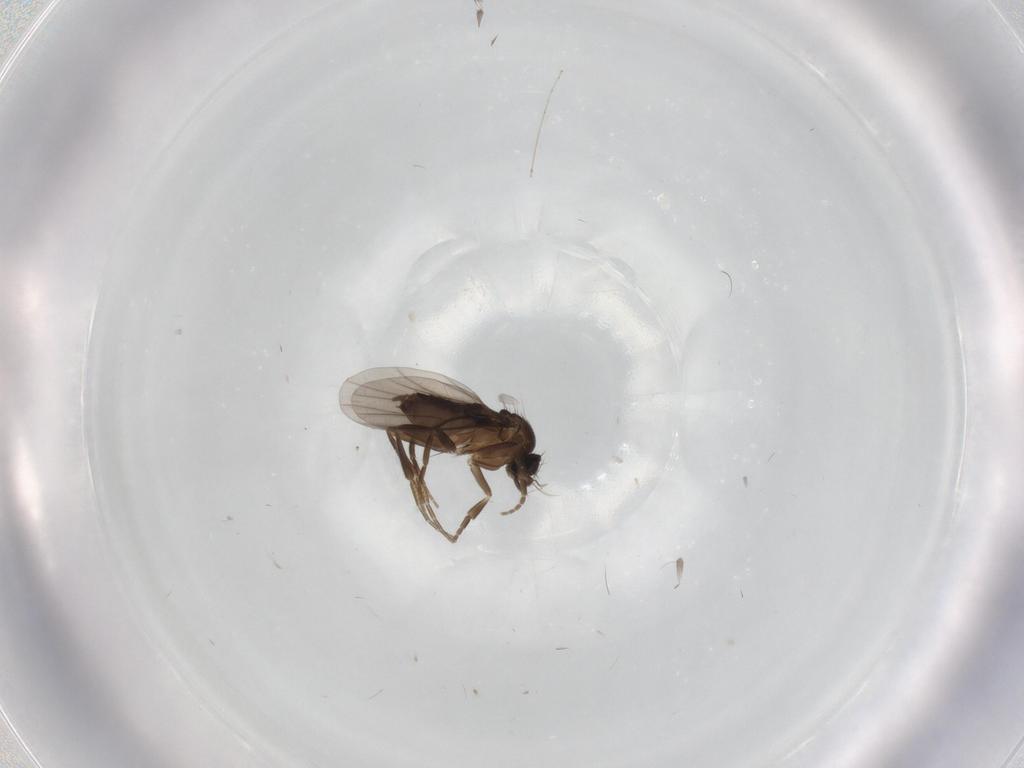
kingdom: Animalia
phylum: Arthropoda
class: Insecta
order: Diptera
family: Phoridae
